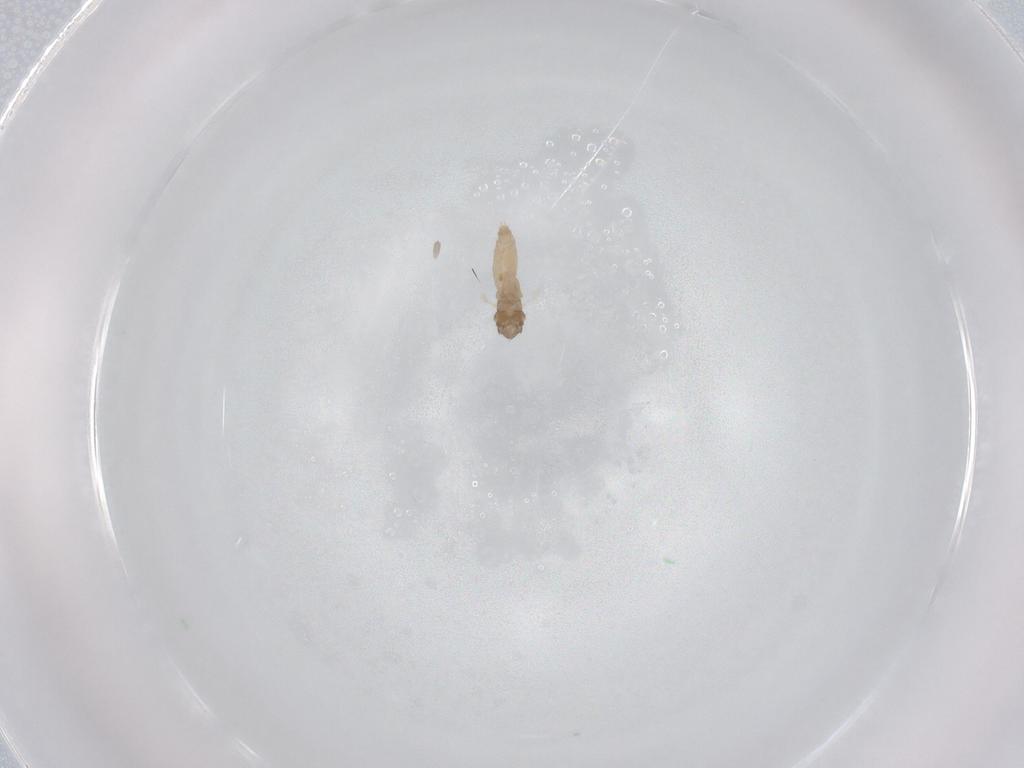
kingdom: Animalia
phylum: Arthropoda
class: Insecta
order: Diptera
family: Cecidomyiidae
